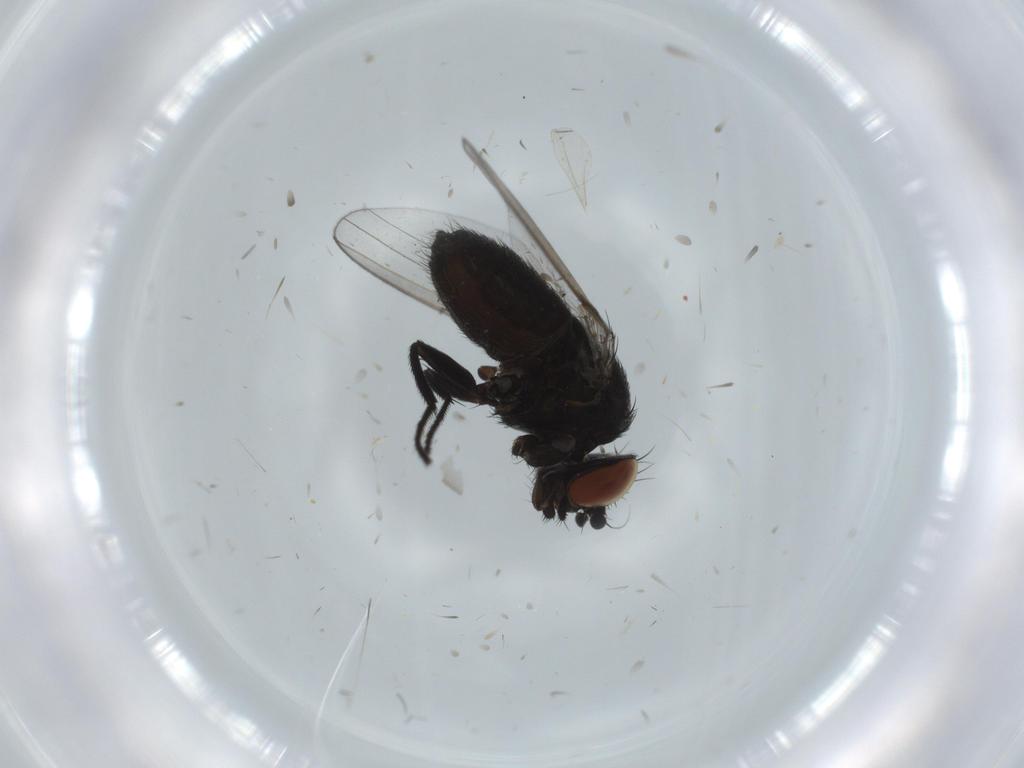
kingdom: Animalia
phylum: Arthropoda
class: Insecta
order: Diptera
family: Milichiidae
